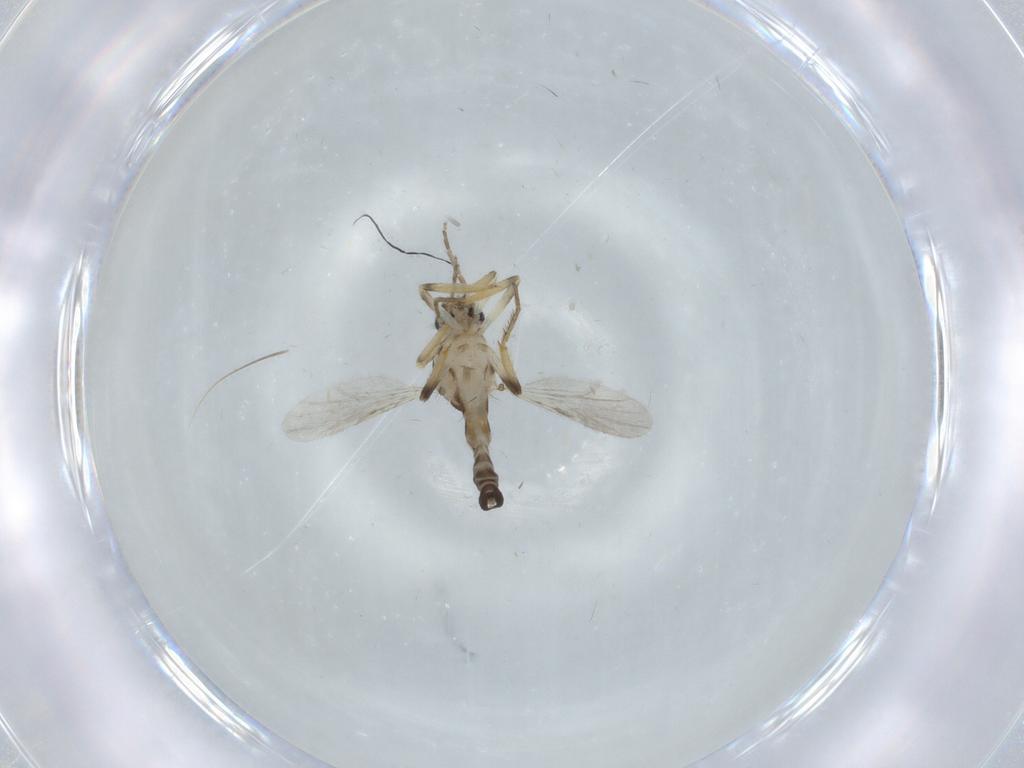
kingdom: Animalia
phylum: Arthropoda
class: Insecta
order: Diptera
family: Ceratopogonidae
